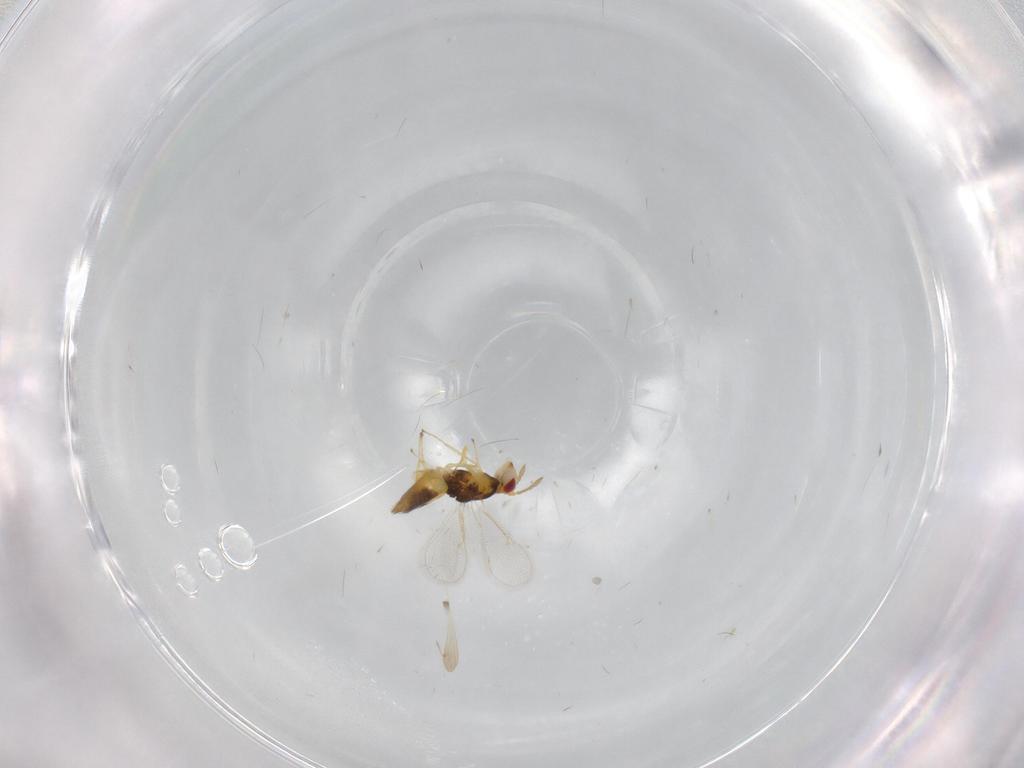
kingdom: Animalia
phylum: Arthropoda
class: Insecta
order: Hymenoptera
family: Eulophidae
